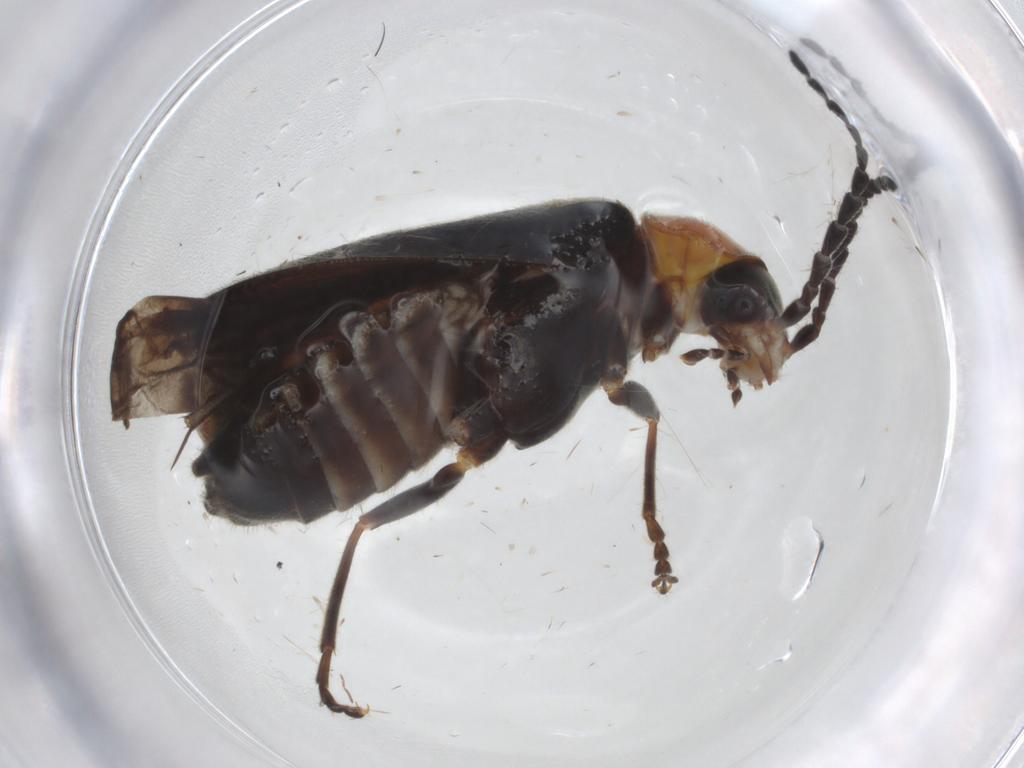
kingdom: Animalia
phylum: Arthropoda
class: Insecta
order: Coleoptera
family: Cantharidae
